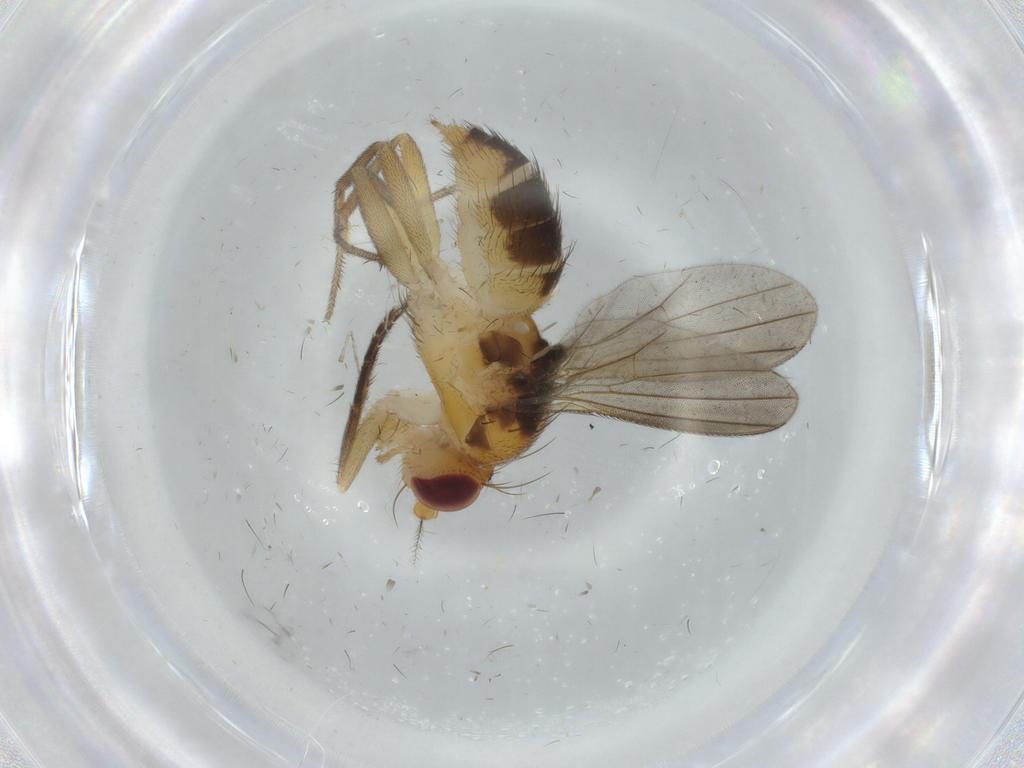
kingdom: Animalia
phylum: Arthropoda
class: Insecta
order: Diptera
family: Clusiidae
